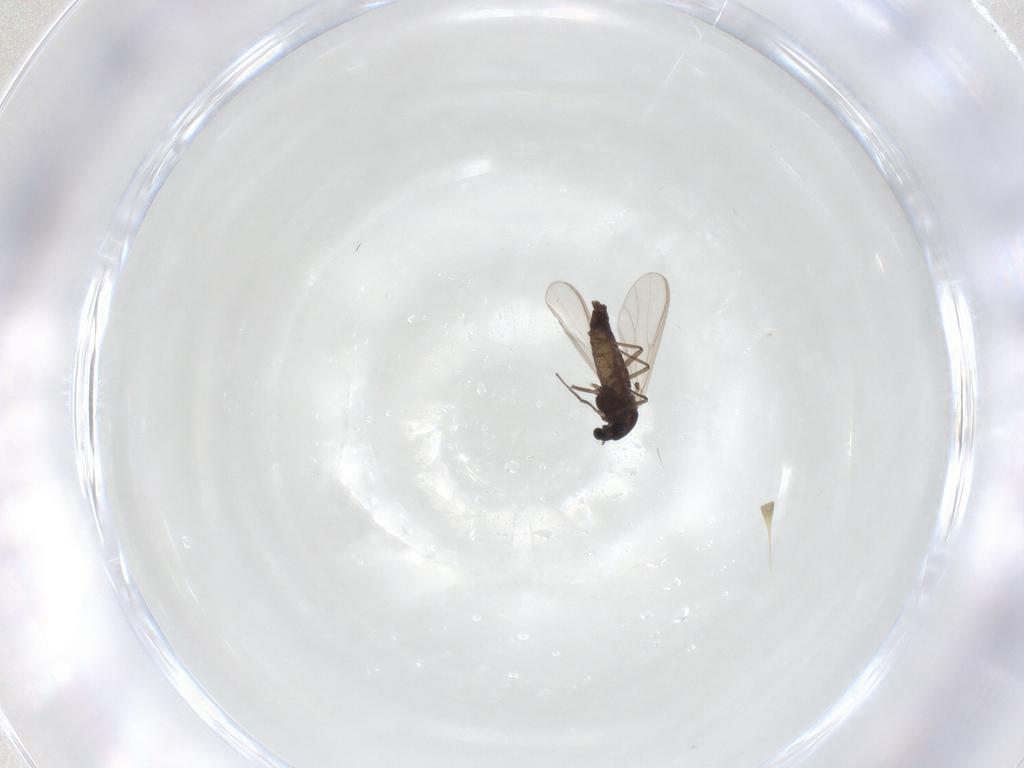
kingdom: Animalia
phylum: Arthropoda
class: Insecta
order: Diptera
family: Chironomidae
